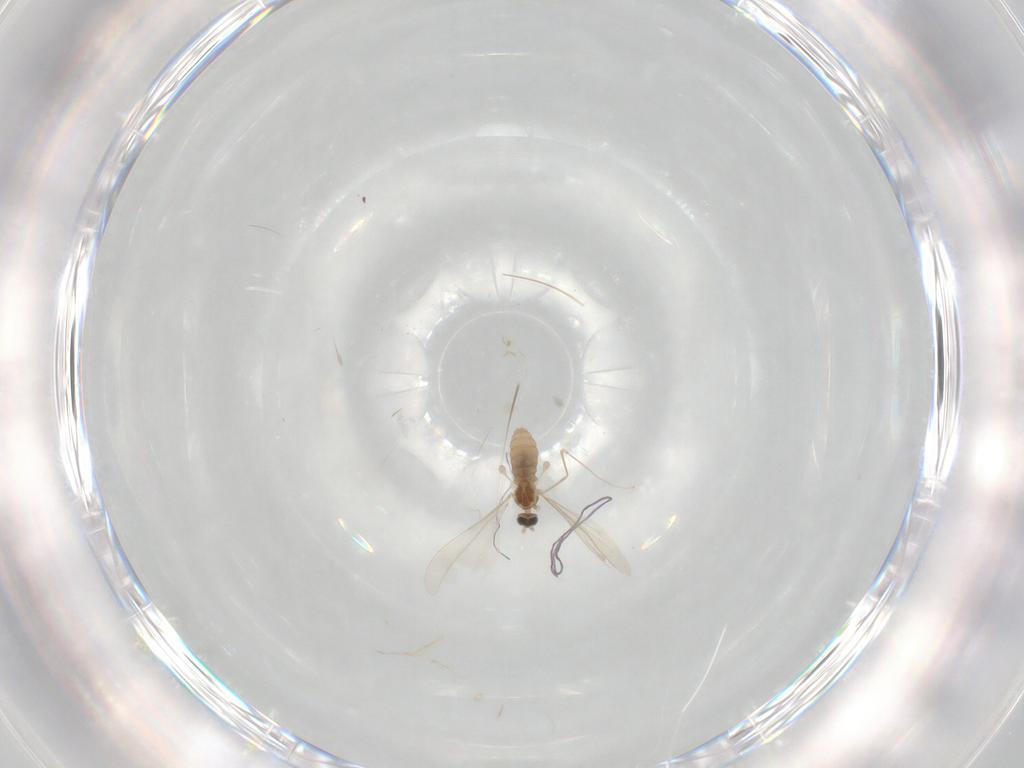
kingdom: Animalia
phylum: Arthropoda
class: Insecta
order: Diptera
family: Cecidomyiidae
